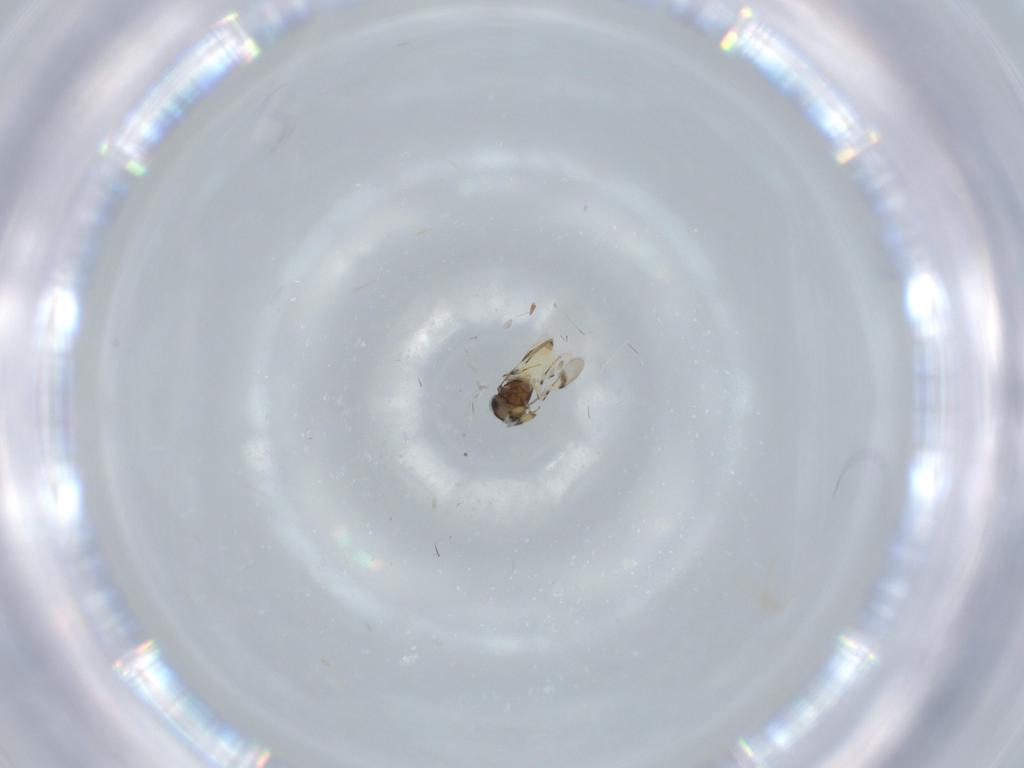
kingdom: Animalia
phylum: Arthropoda
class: Insecta
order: Hymenoptera
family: Scelionidae
